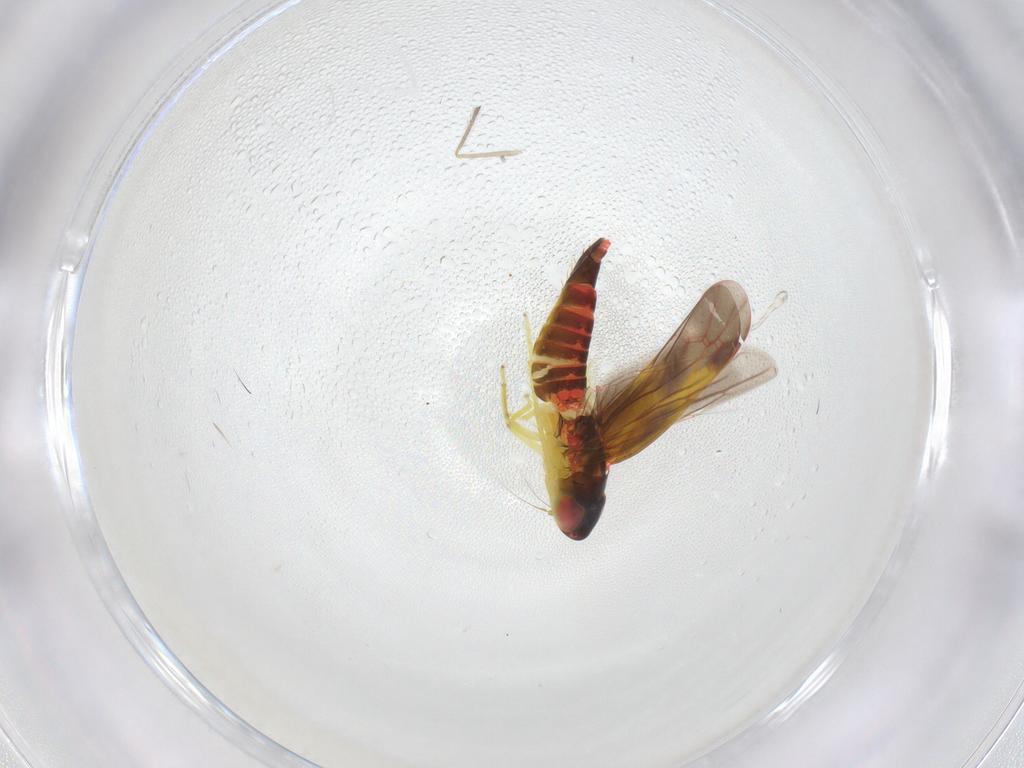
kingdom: Animalia
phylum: Arthropoda
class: Insecta
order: Hemiptera
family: Cicadellidae
